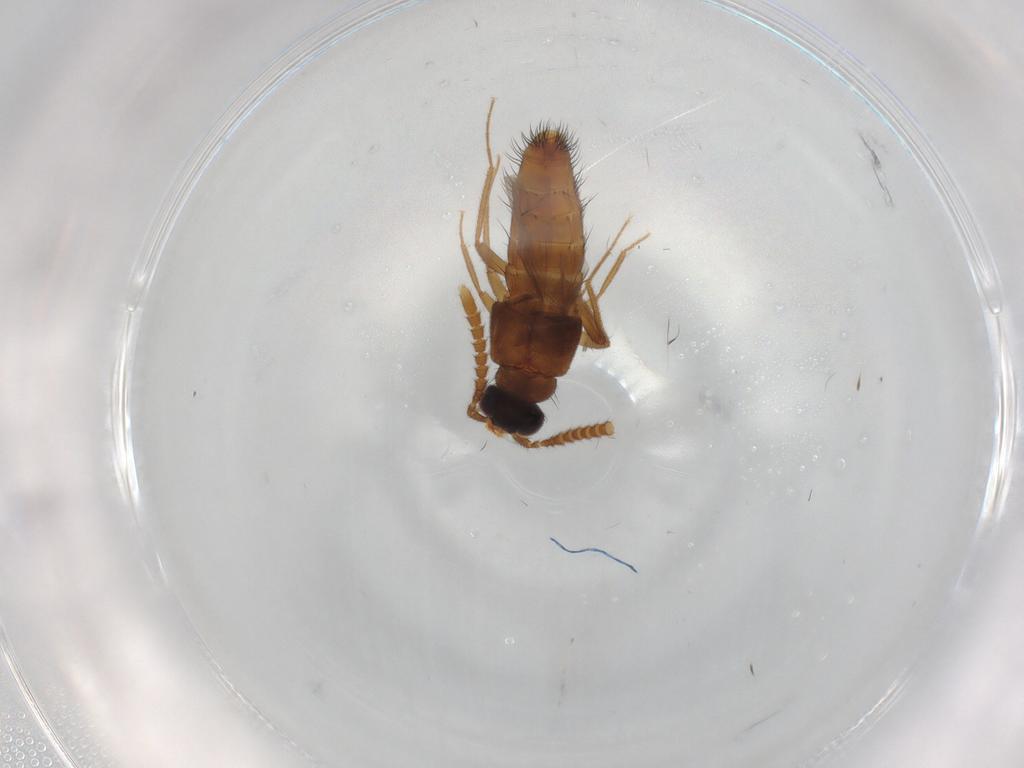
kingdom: Animalia
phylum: Arthropoda
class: Insecta
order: Coleoptera
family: Staphylinidae
